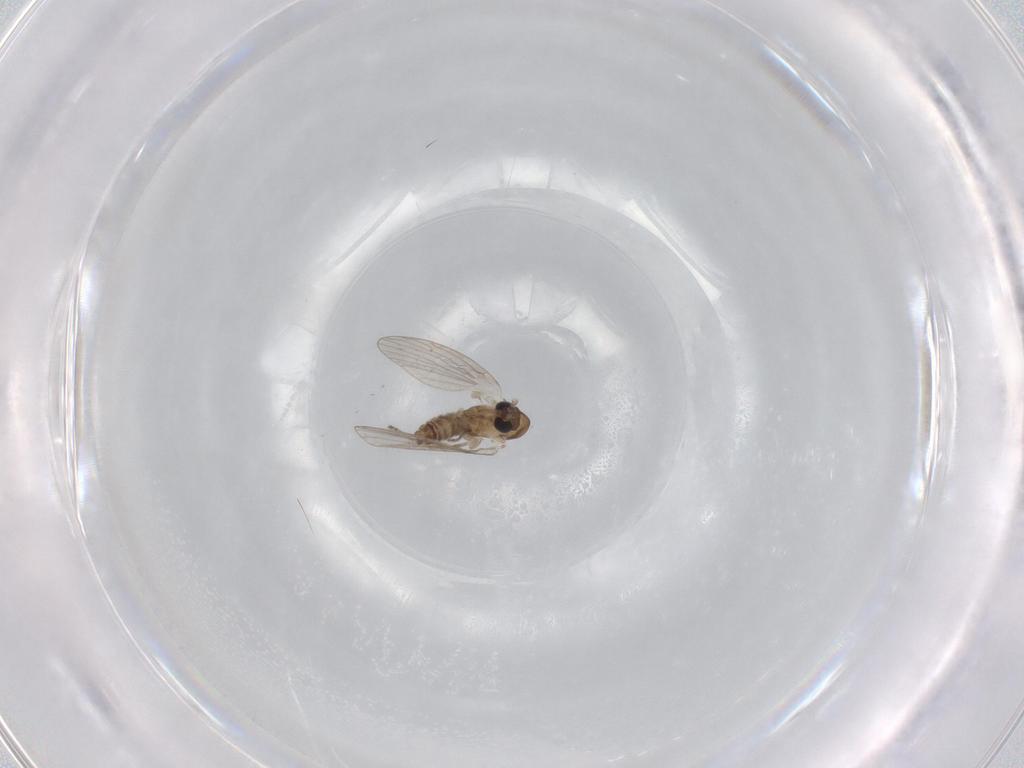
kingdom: Animalia
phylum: Arthropoda
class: Insecta
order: Diptera
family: Sciaridae
